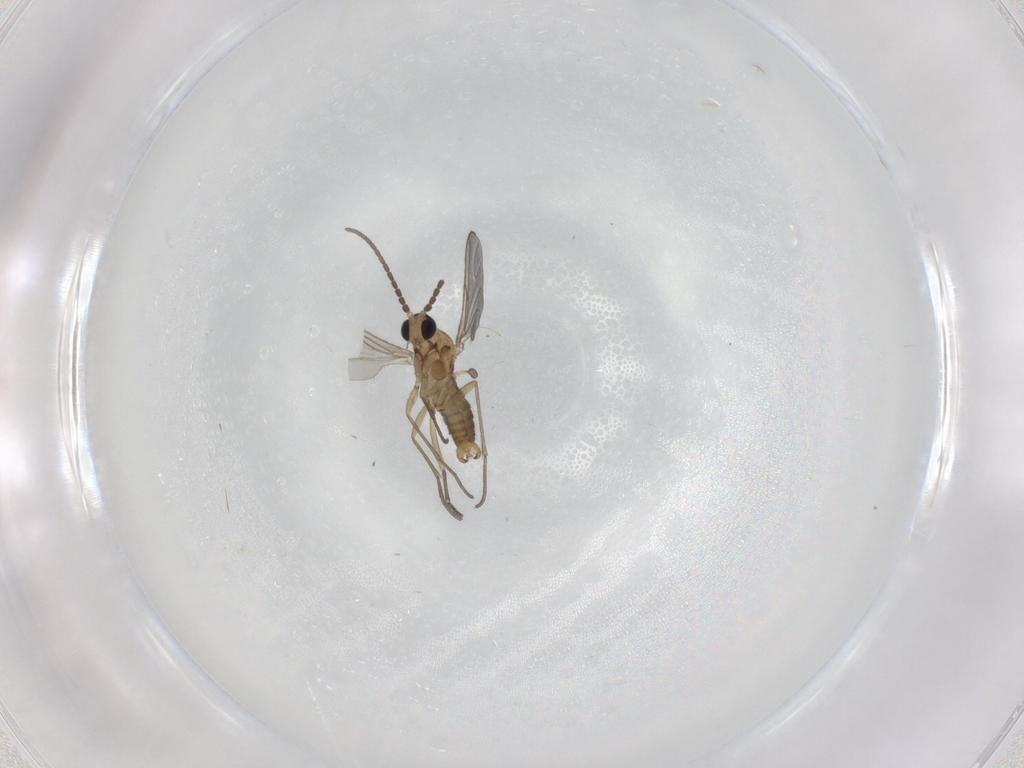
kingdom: Animalia
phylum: Arthropoda
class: Insecta
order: Diptera
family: Sciaridae
